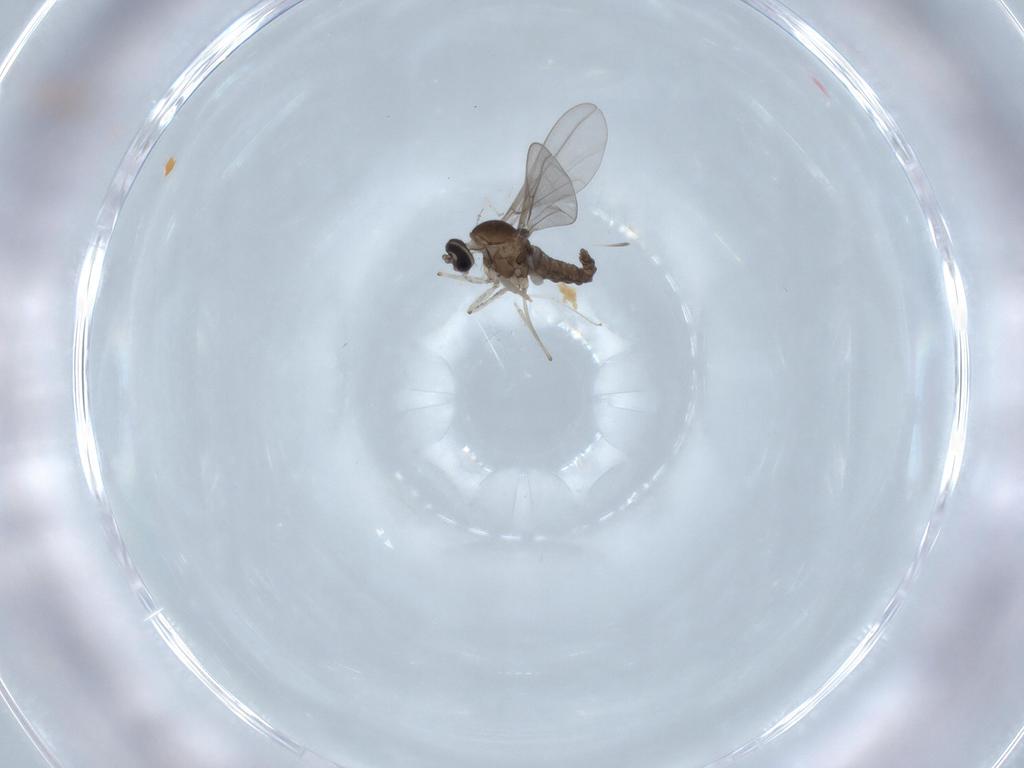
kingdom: Animalia
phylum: Arthropoda
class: Insecta
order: Diptera
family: Cecidomyiidae
